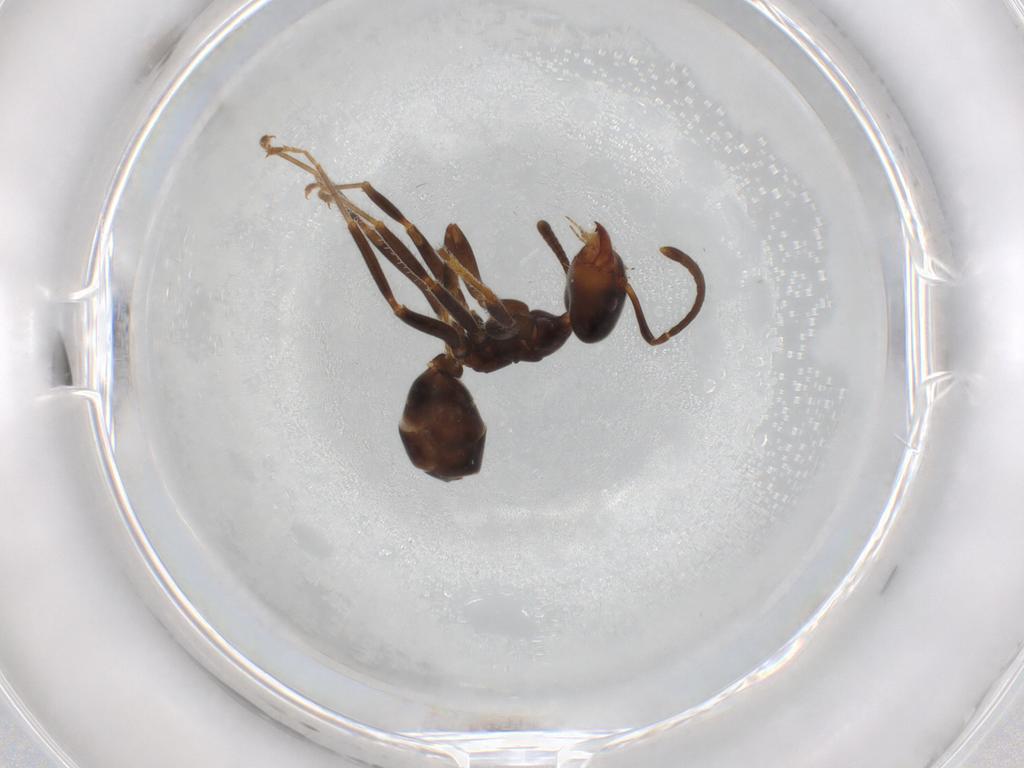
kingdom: Animalia
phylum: Arthropoda
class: Insecta
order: Hymenoptera
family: Formicidae
